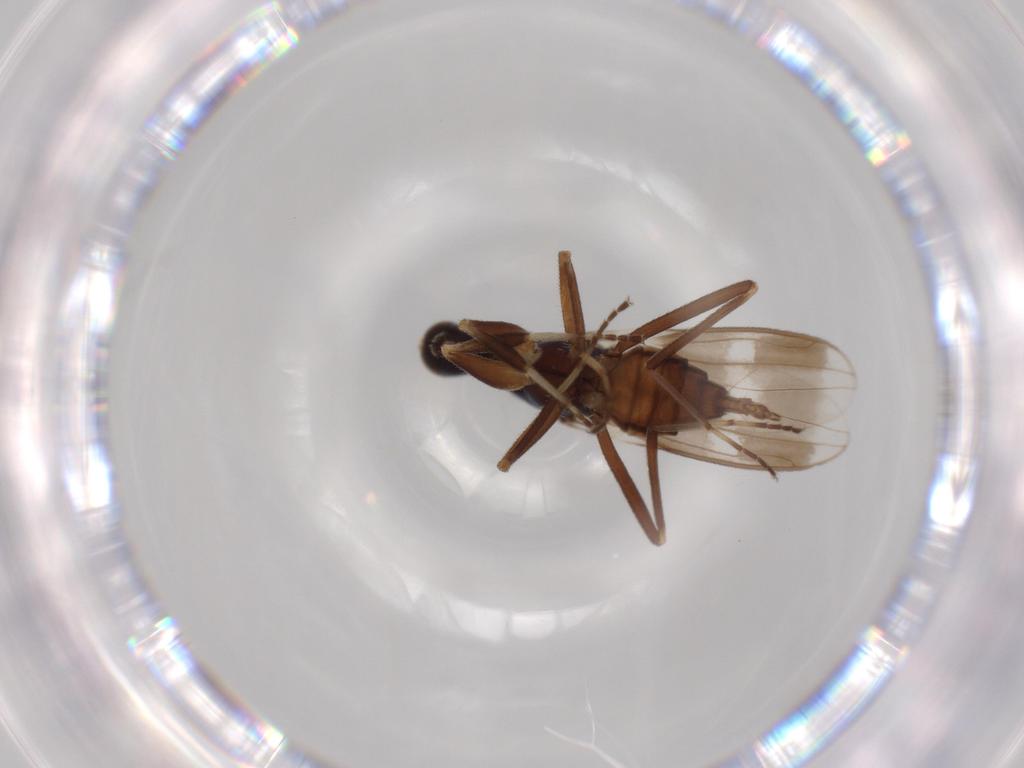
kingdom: Animalia
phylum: Arthropoda
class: Insecta
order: Diptera
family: Hybotidae
